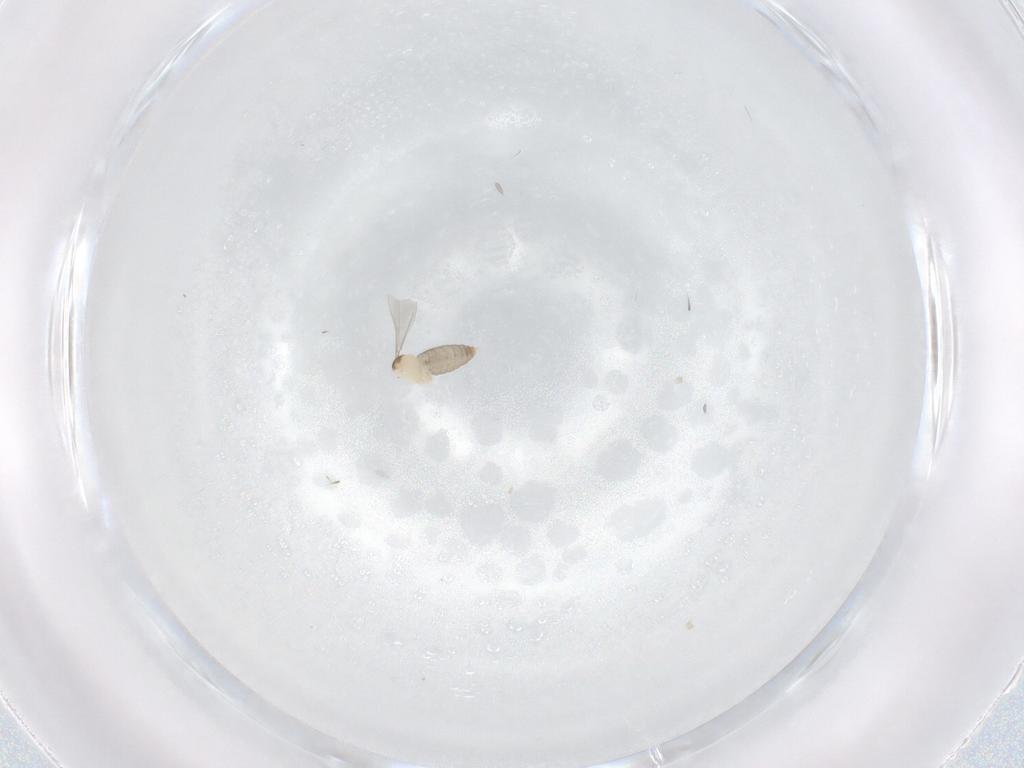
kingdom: Animalia
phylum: Arthropoda
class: Insecta
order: Diptera
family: Cecidomyiidae
